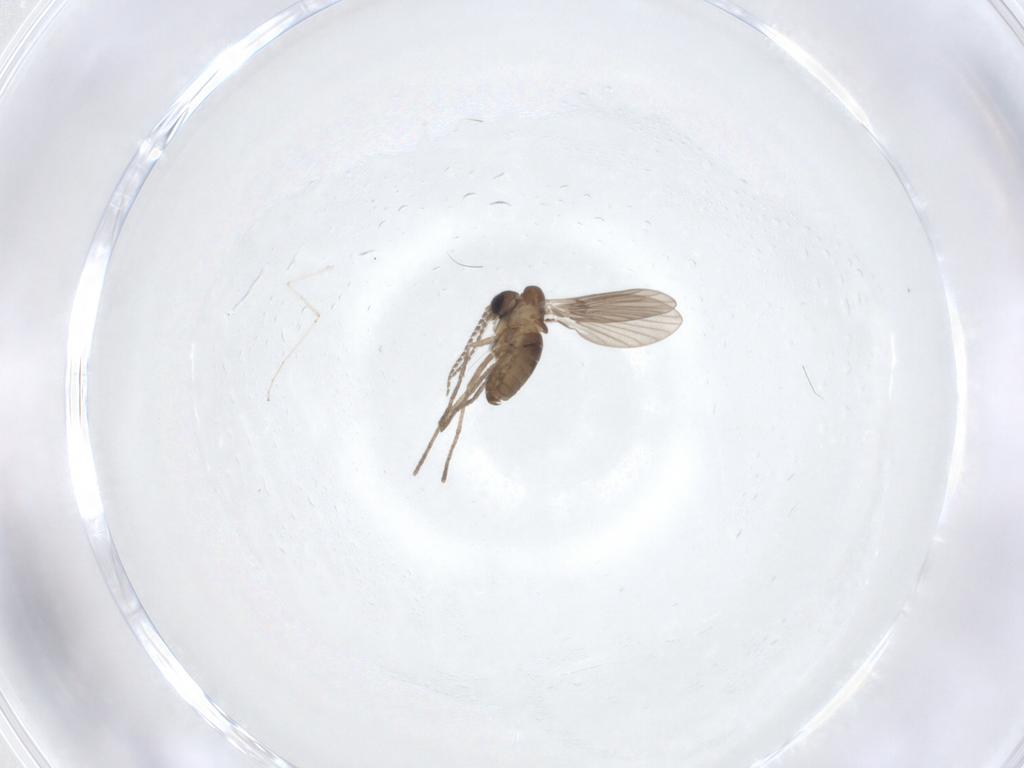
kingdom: Animalia
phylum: Arthropoda
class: Insecta
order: Diptera
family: Cecidomyiidae
